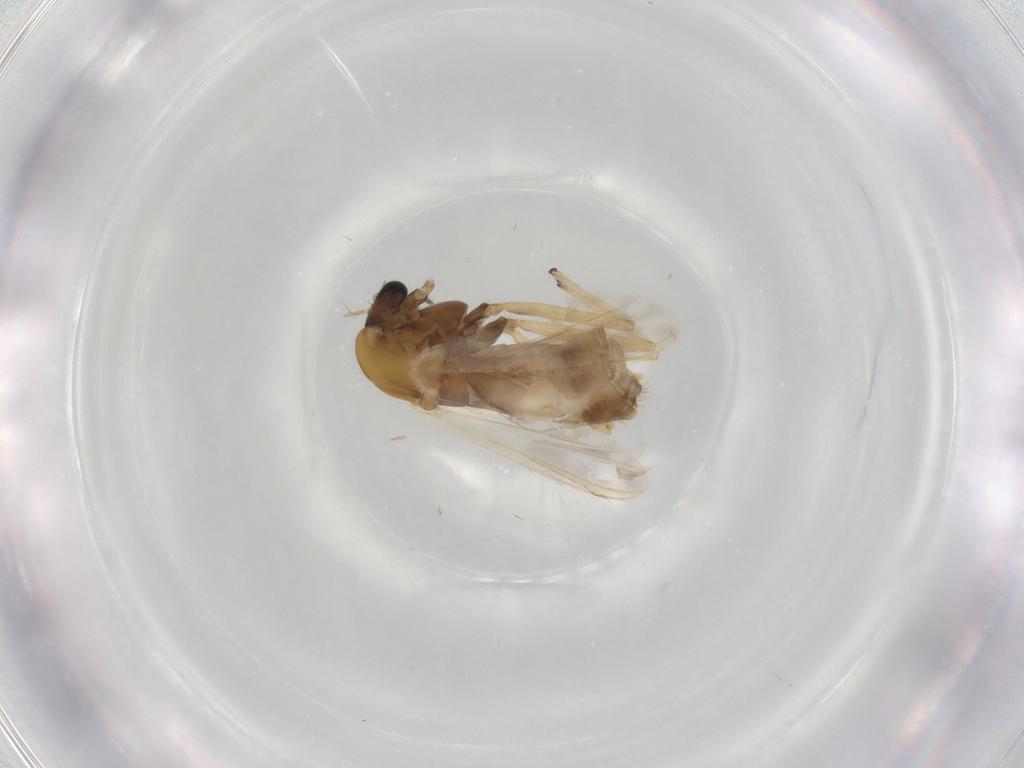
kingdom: Animalia
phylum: Arthropoda
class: Insecta
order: Diptera
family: Chironomidae
